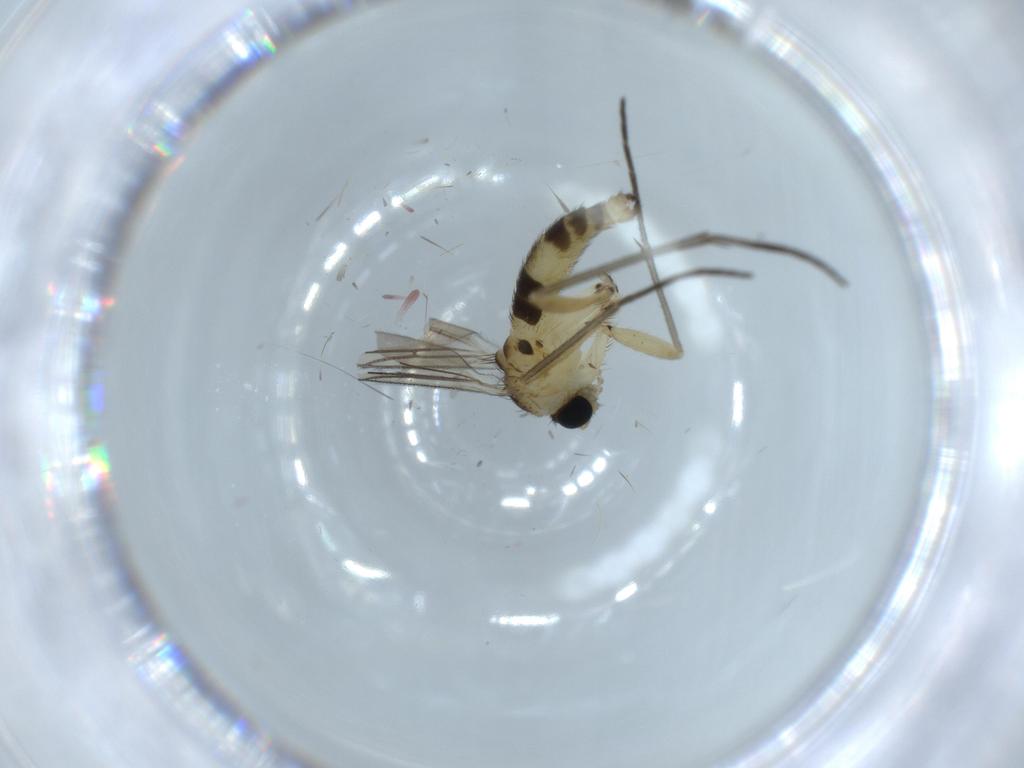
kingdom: Animalia
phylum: Arthropoda
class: Insecta
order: Diptera
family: Sciaridae
